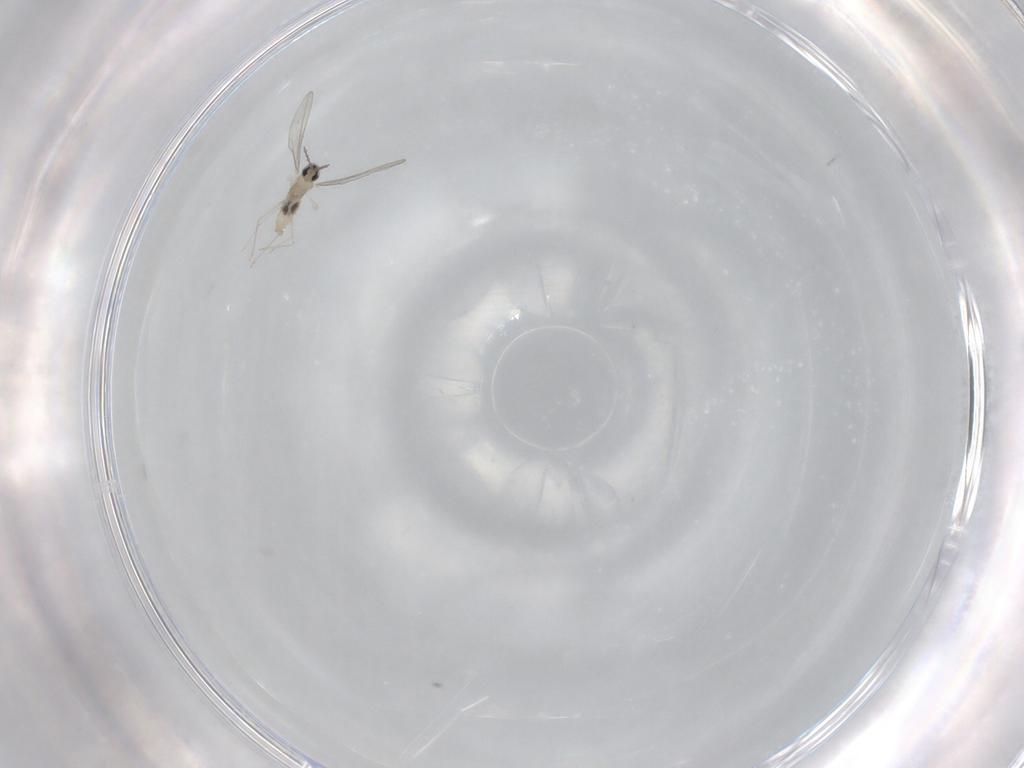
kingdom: Animalia
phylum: Arthropoda
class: Insecta
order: Diptera
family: Cecidomyiidae
